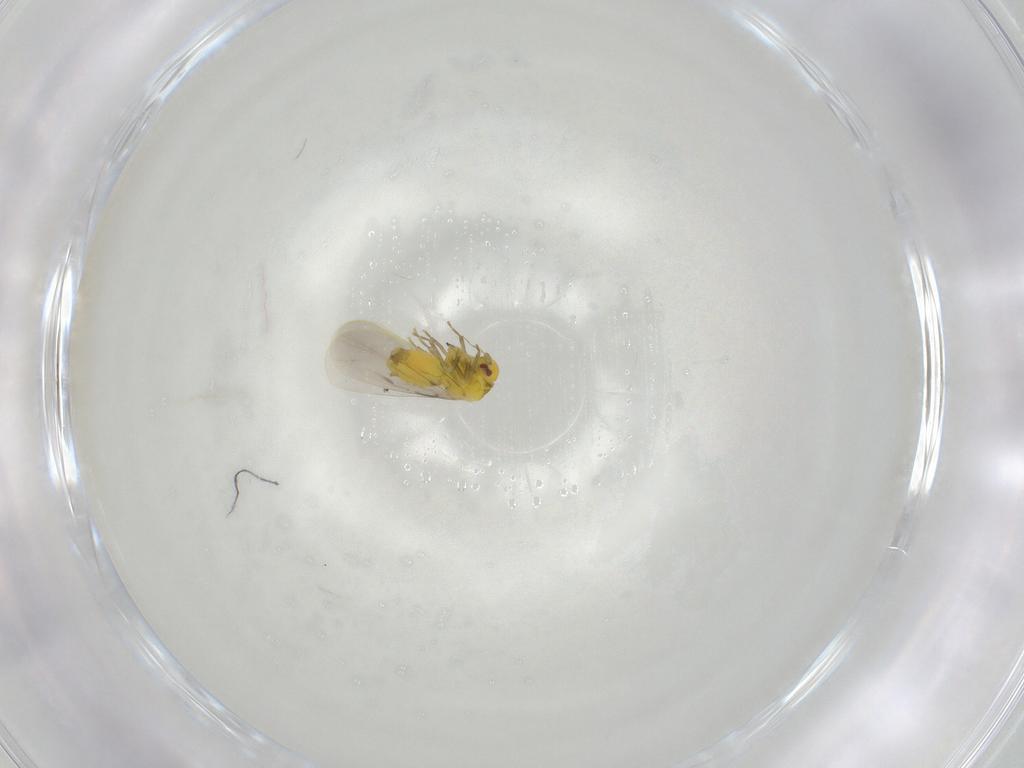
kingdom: Animalia
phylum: Arthropoda
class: Insecta
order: Hemiptera
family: Aleyrodidae
